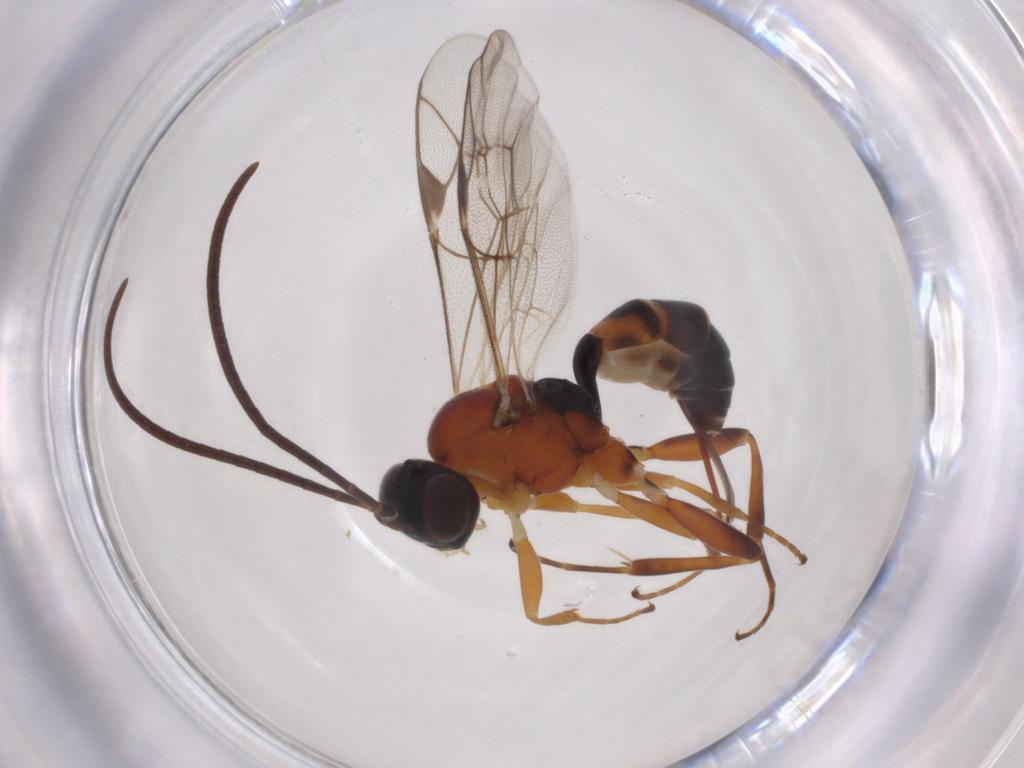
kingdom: Animalia
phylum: Arthropoda
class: Insecta
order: Hymenoptera
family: Ichneumonidae
